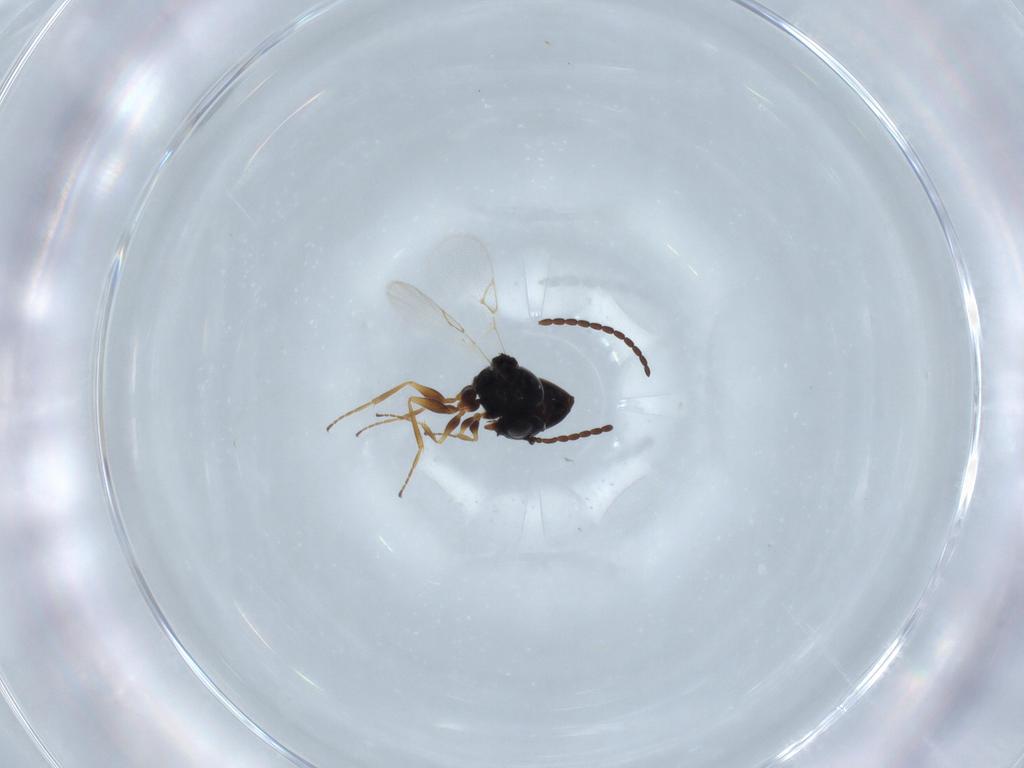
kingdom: Animalia
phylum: Arthropoda
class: Insecta
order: Hymenoptera
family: Figitidae
